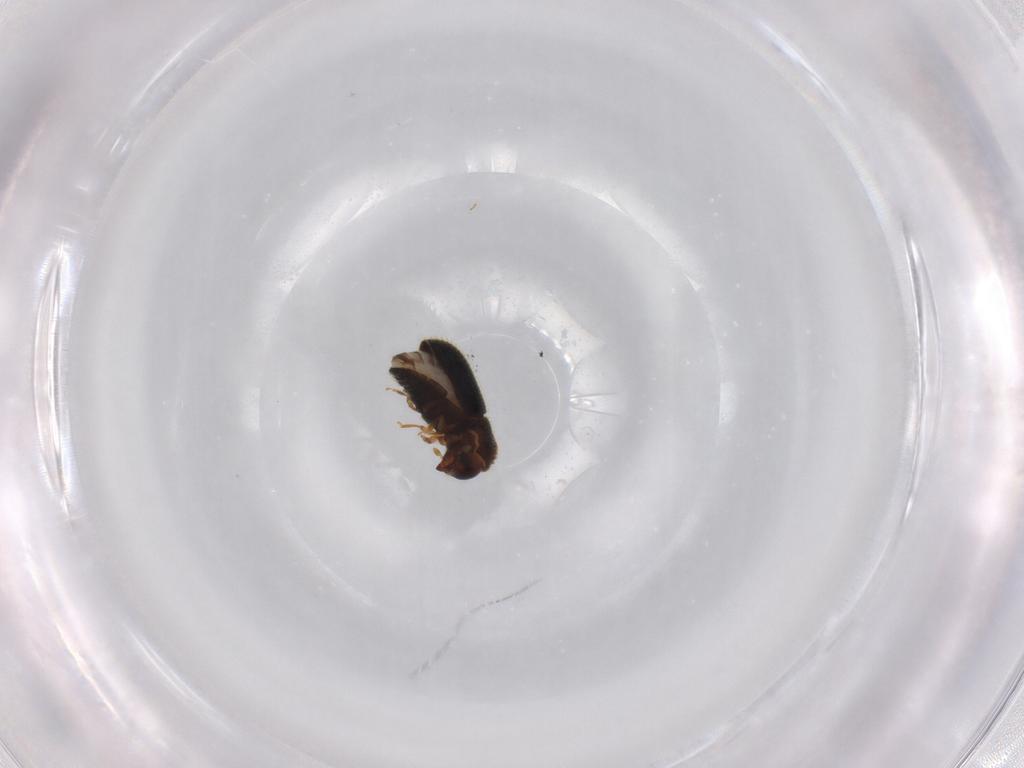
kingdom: Animalia
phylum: Arthropoda
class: Insecta
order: Coleoptera
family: Curculionidae
